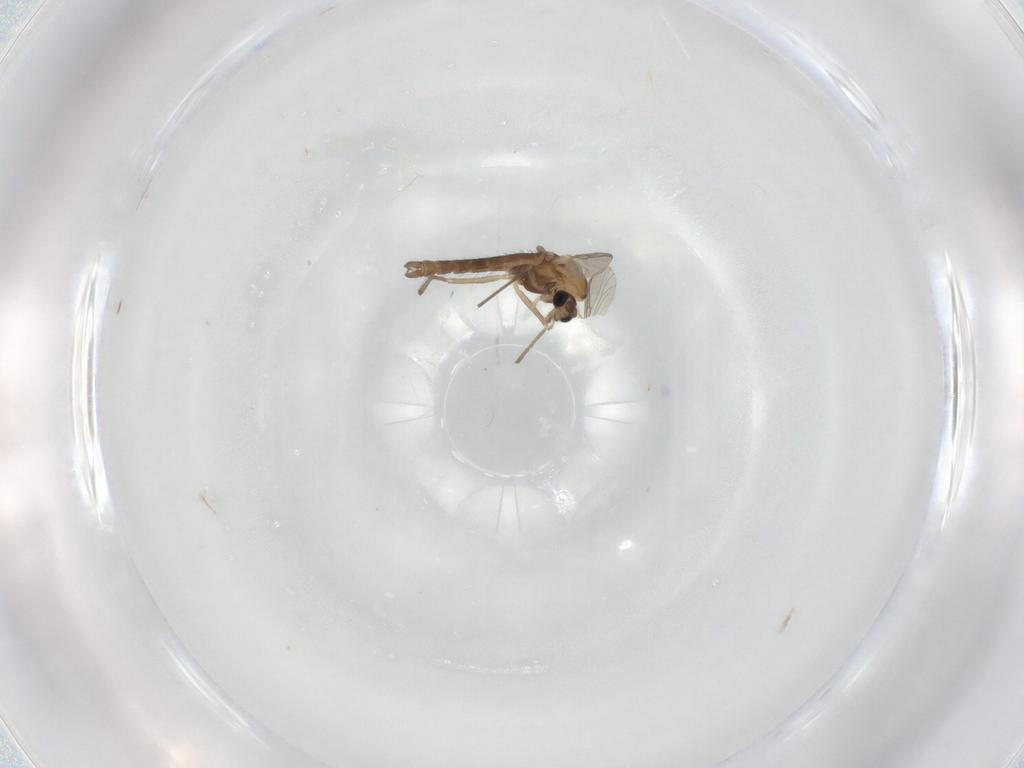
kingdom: Animalia
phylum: Arthropoda
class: Insecta
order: Diptera
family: Chironomidae
